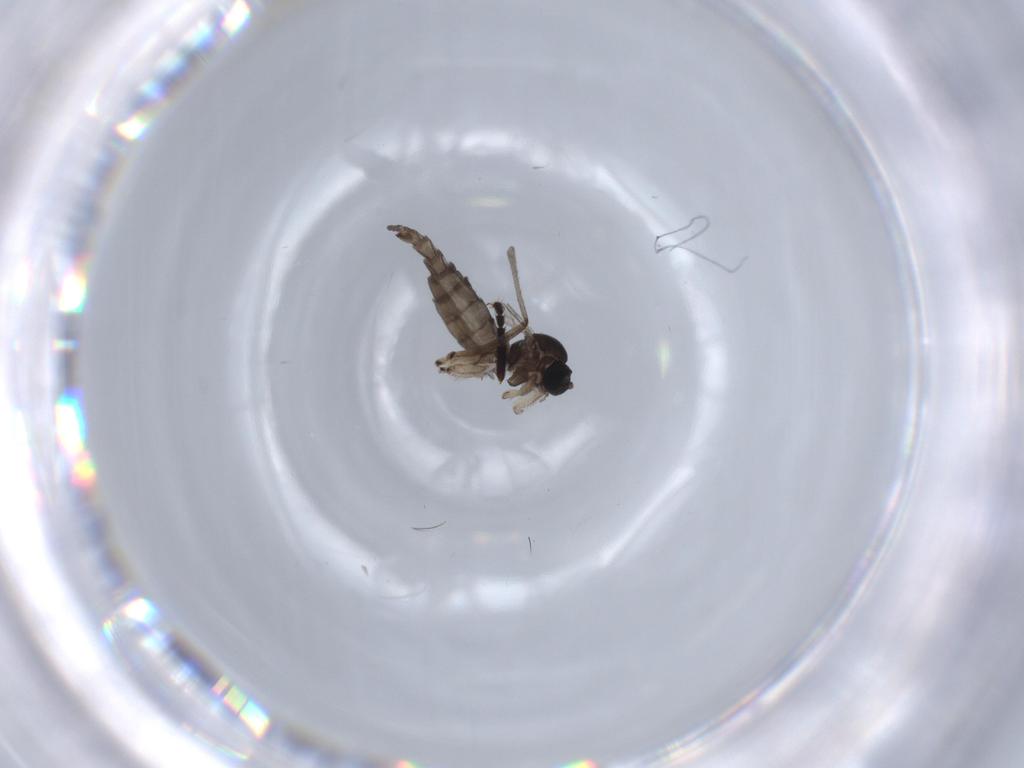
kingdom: Animalia
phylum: Arthropoda
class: Insecta
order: Diptera
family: Sciaridae
